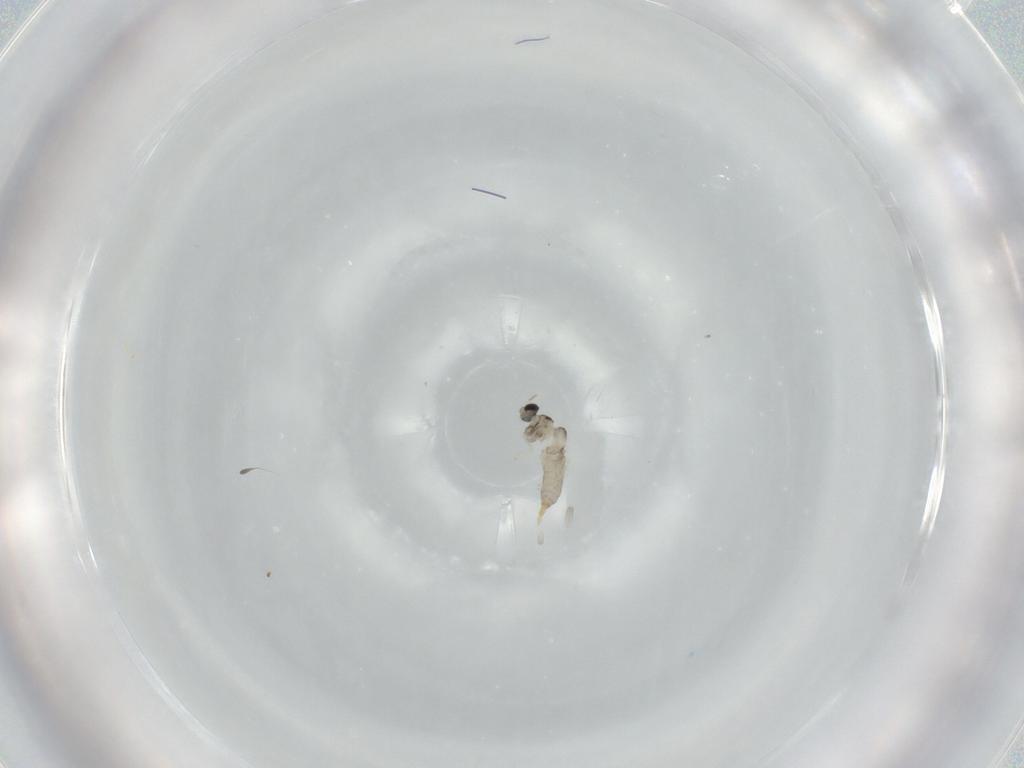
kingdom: Animalia
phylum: Arthropoda
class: Insecta
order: Diptera
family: Cecidomyiidae
